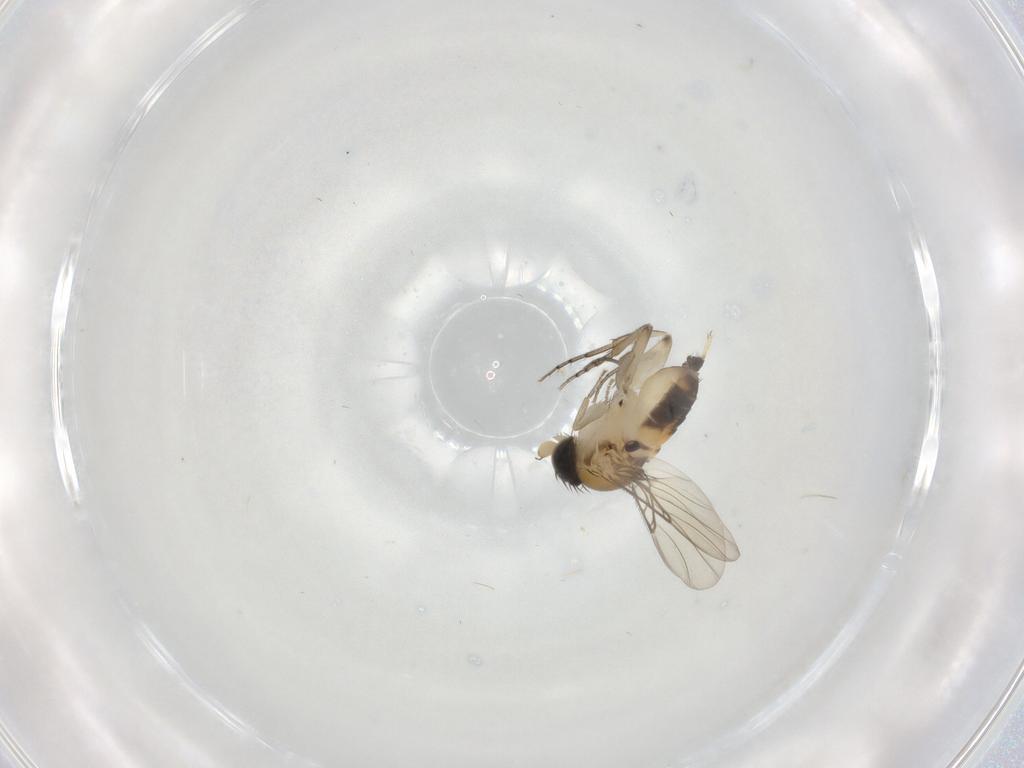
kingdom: Animalia
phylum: Arthropoda
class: Insecta
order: Diptera
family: Phoridae
